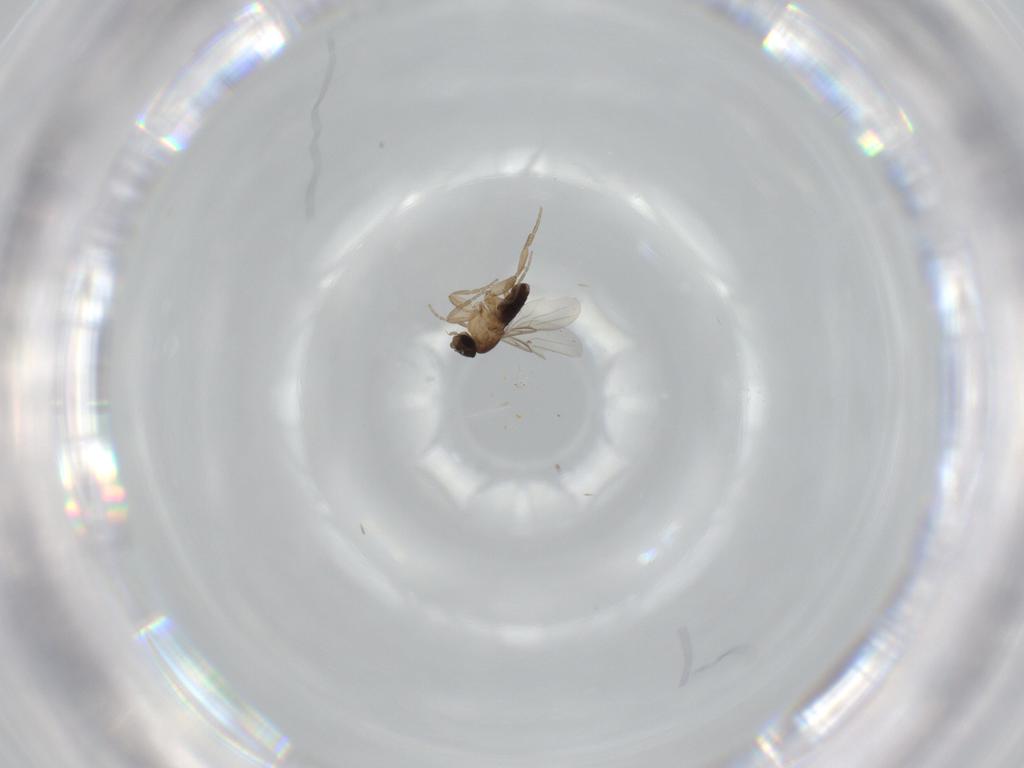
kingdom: Animalia
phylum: Arthropoda
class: Insecta
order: Diptera
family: Phoridae
